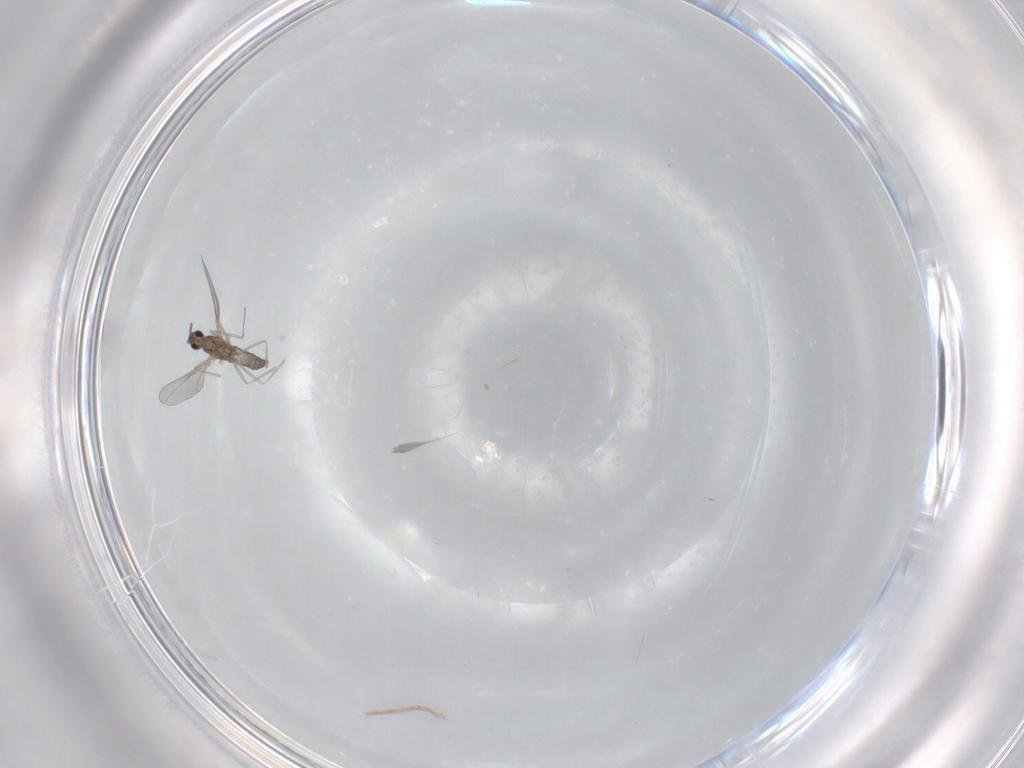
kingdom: Animalia
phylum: Arthropoda
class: Insecta
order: Diptera
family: Cecidomyiidae
